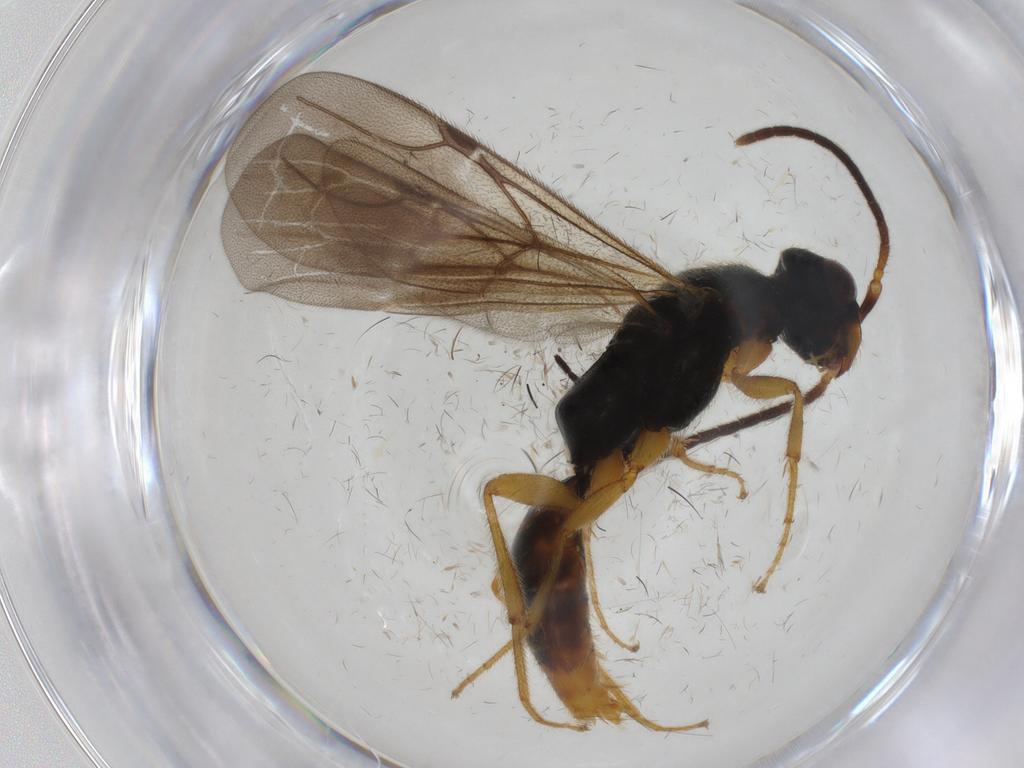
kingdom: Animalia
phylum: Arthropoda
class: Insecta
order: Hymenoptera
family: Bethylidae
